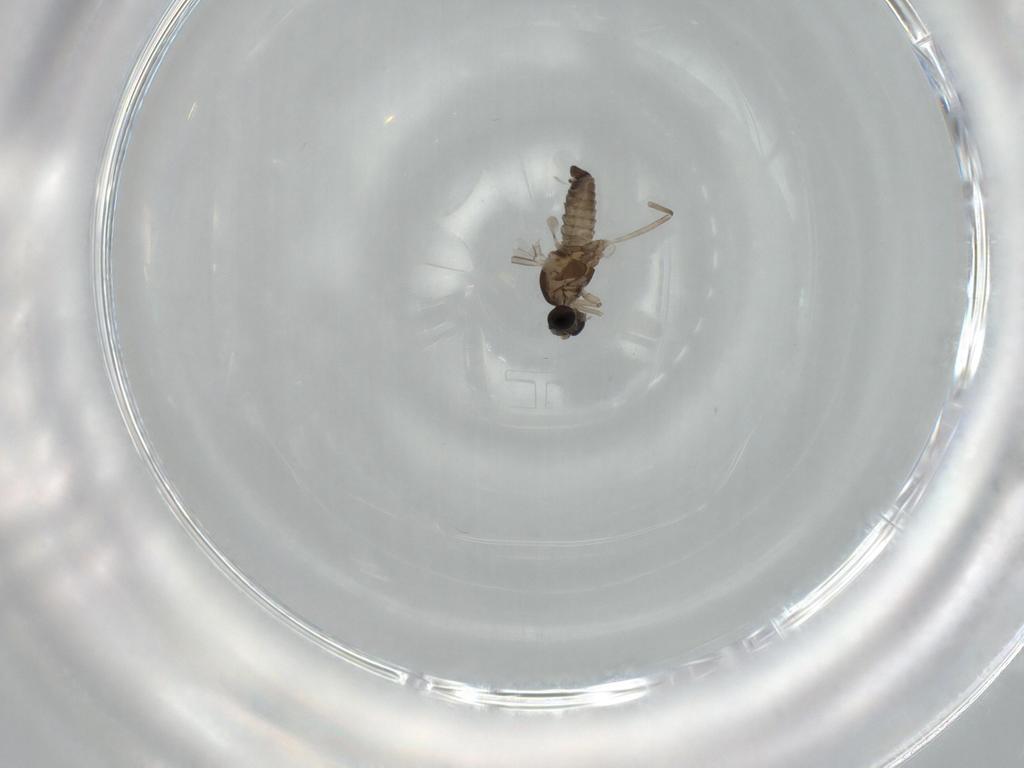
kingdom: Animalia
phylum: Arthropoda
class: Insecta
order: Diptera
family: Cecidomyiidae
